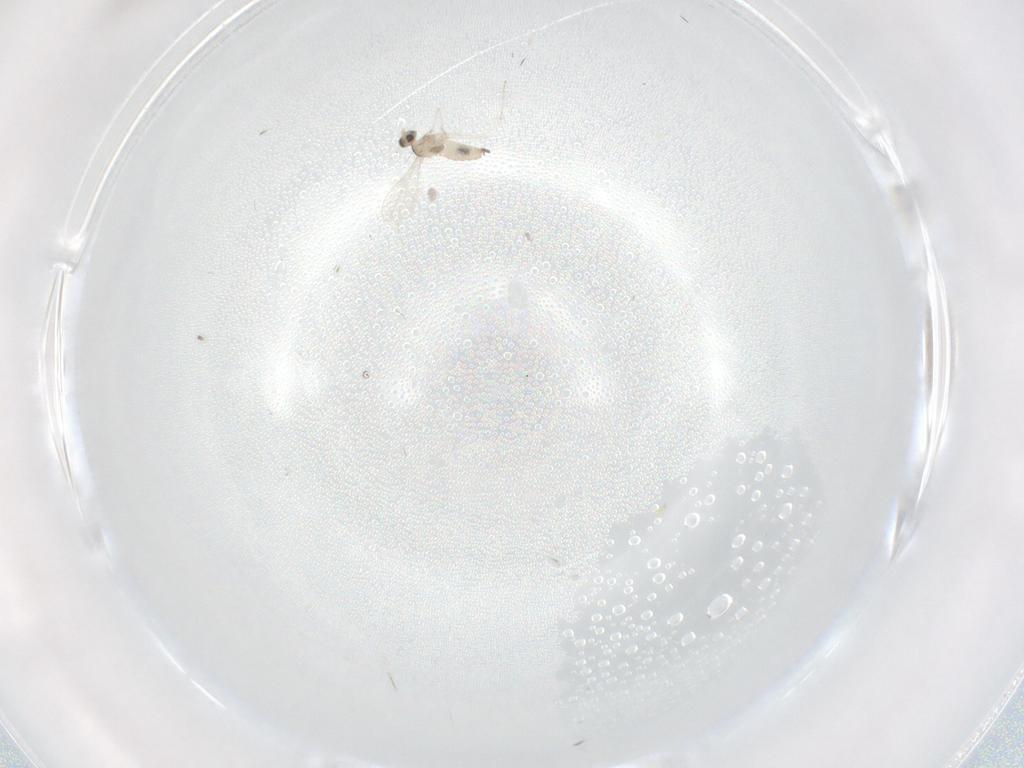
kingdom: Animalia
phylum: Arthropoda
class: Insecta
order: Diptera
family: Cecidomyiidae
